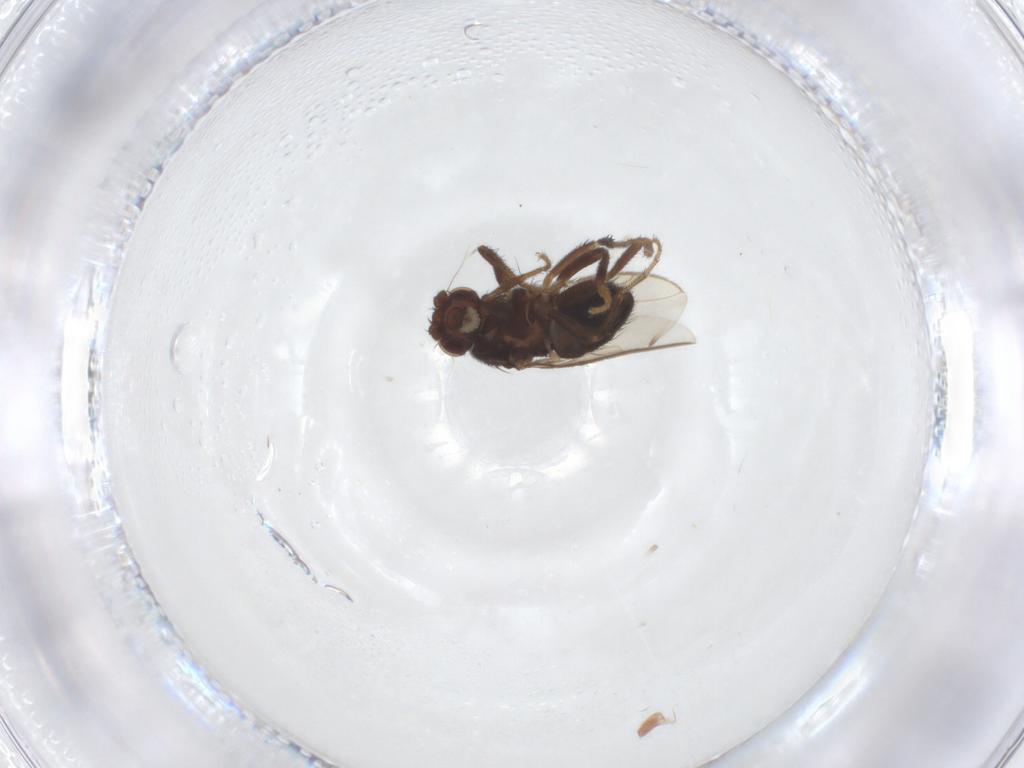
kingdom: Animalia
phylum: Arthropoda
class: Insecta
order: Diptera
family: Sphaeroceridae
